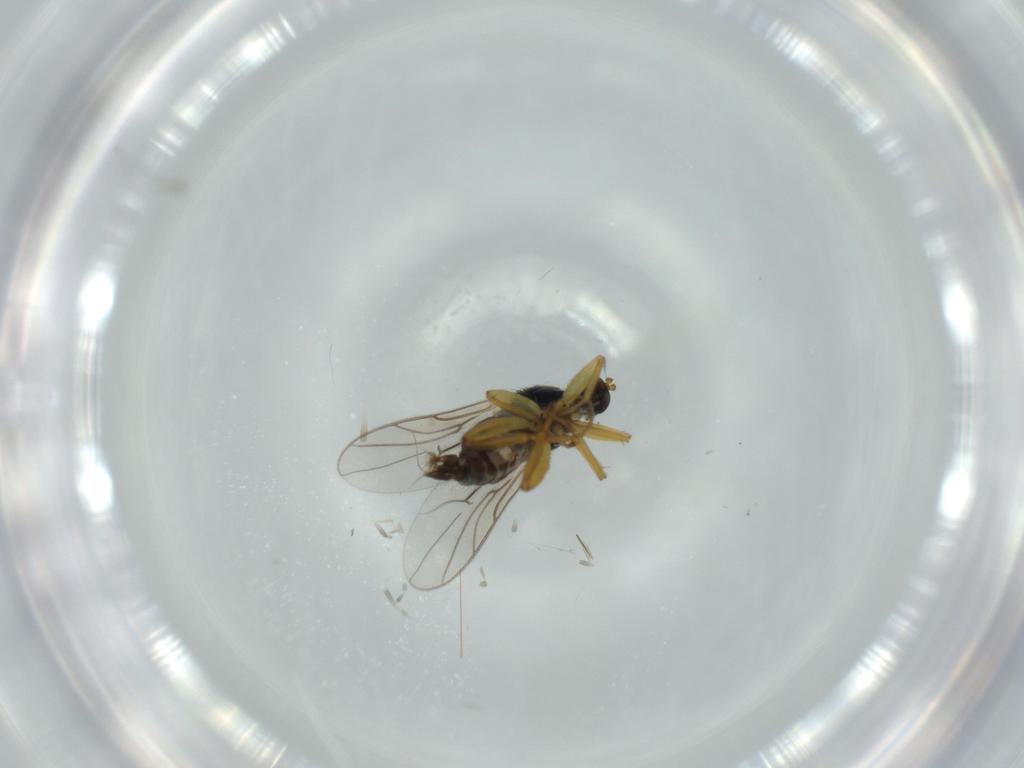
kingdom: Animalia
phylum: Arthropoda
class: Insecta
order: Diptera
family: Hybotidae
